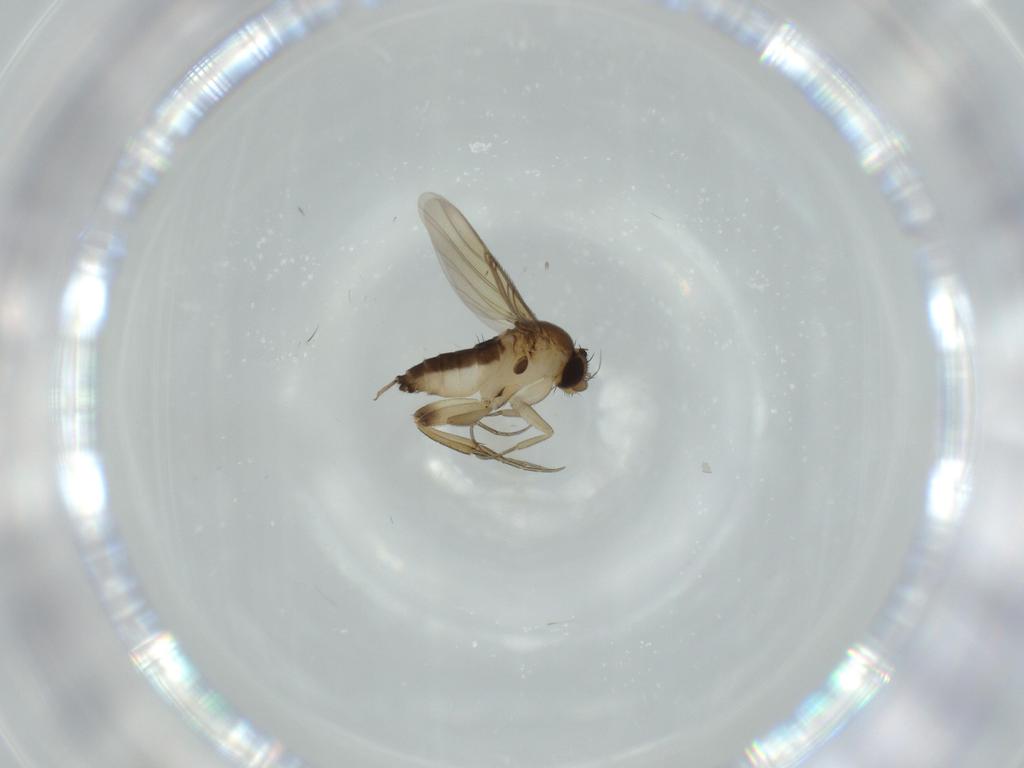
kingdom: Animalia
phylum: Arthropoda
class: Insecta
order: Diptera
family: Phoridae
